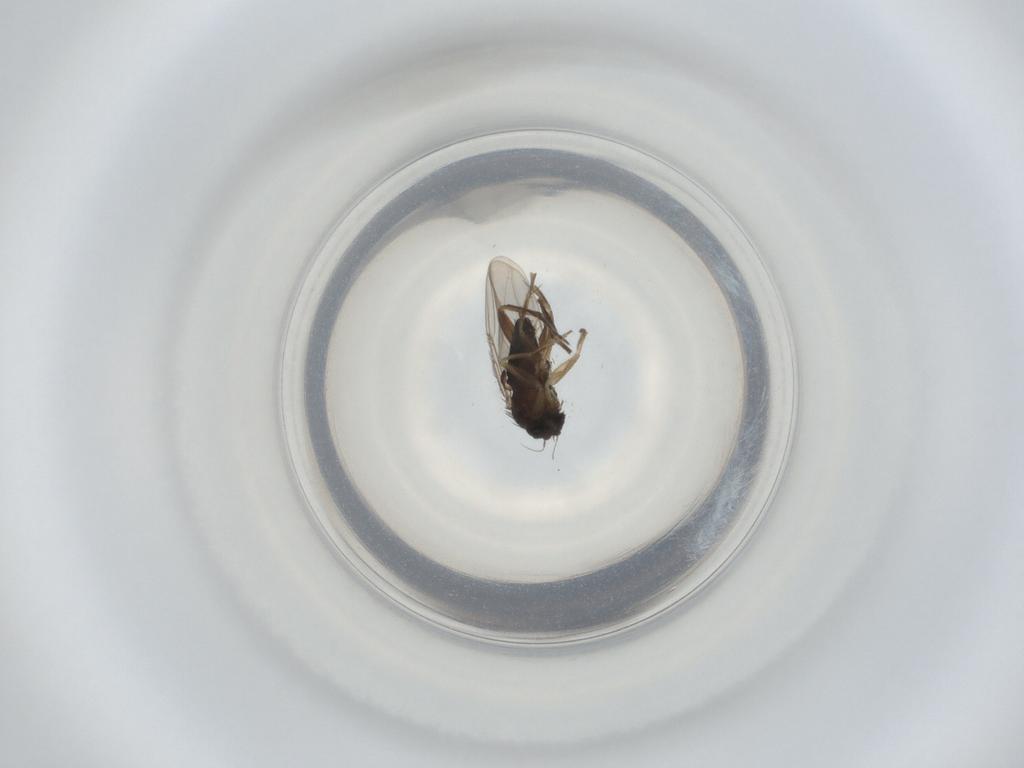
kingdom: Animalia
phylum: Arthropoda
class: Insecta
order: Diptera
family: Phoridae
